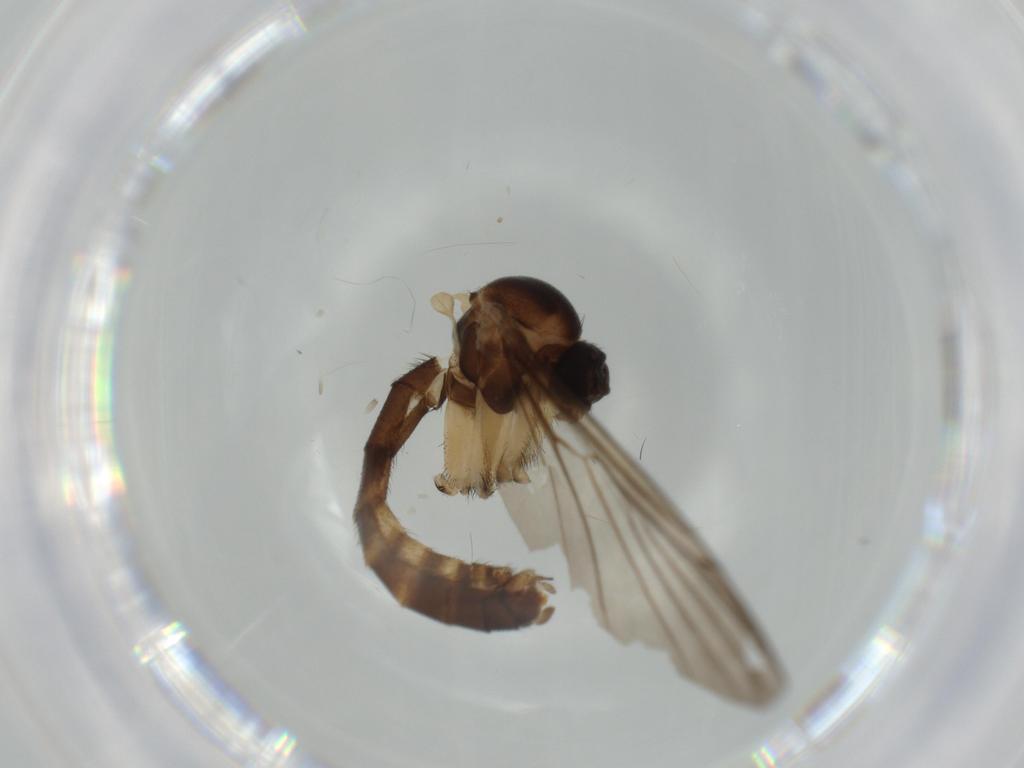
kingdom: Animalia
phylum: Arthropoda
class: Insecta
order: Diptera
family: Tachinidae
